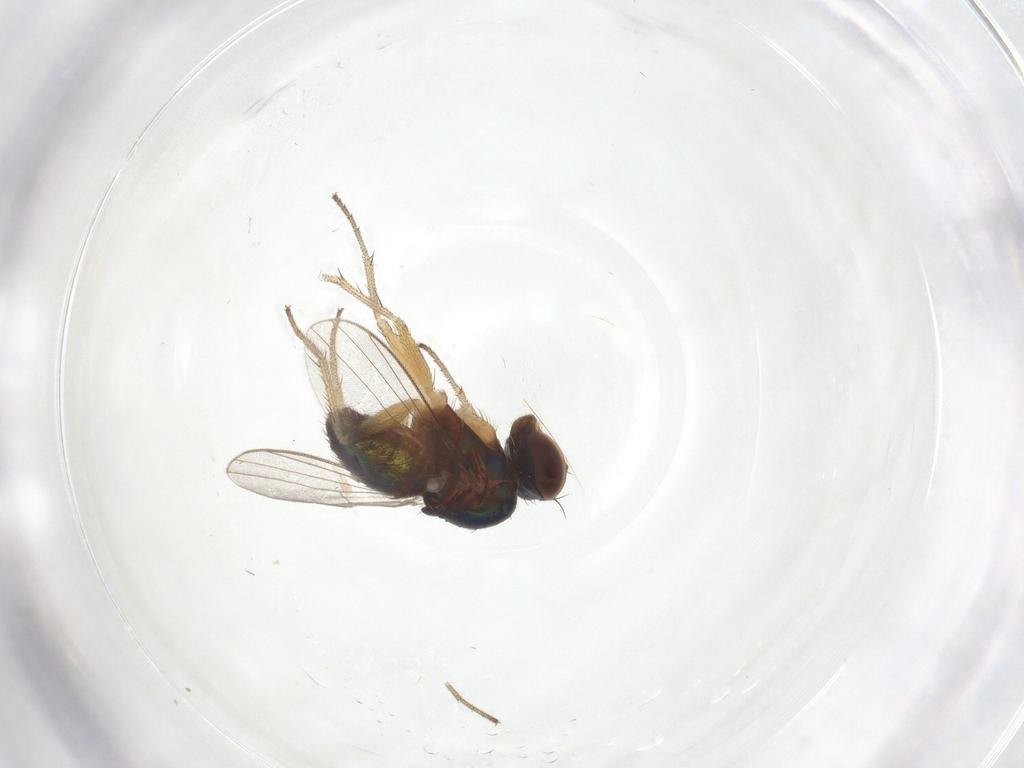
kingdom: Animalia
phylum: Arthropoda
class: Insecta
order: Diptera
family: Dolichopodidae
